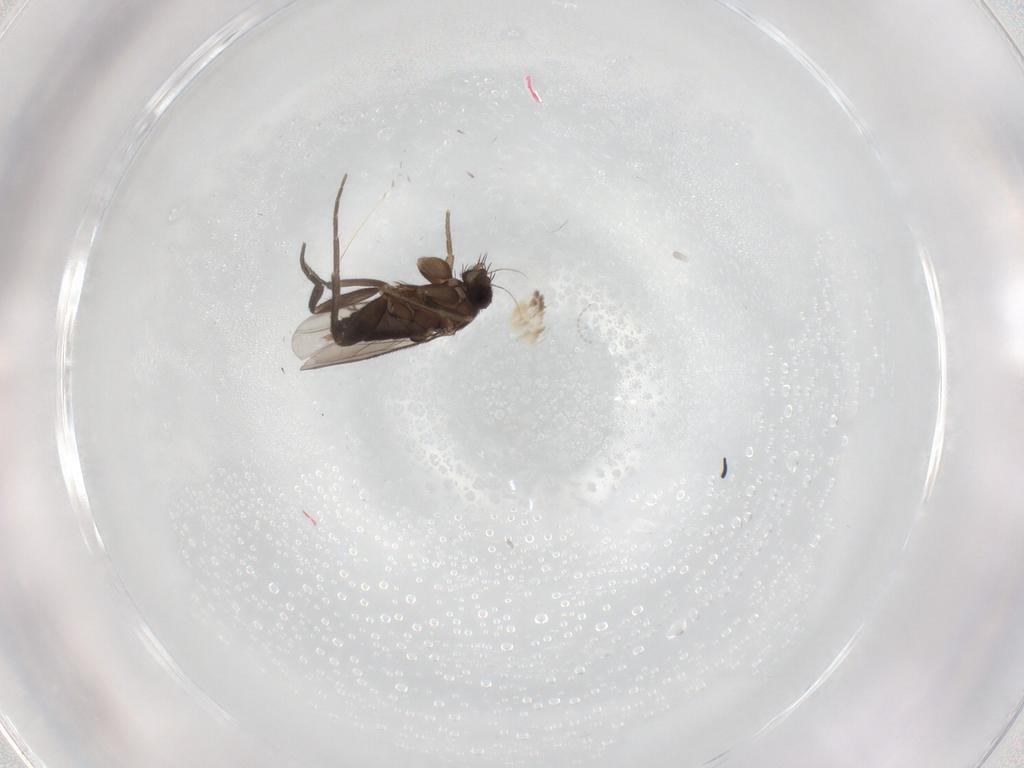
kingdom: Animalia
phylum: Arthropoda
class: Insecta
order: Diptera
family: Phoridae
